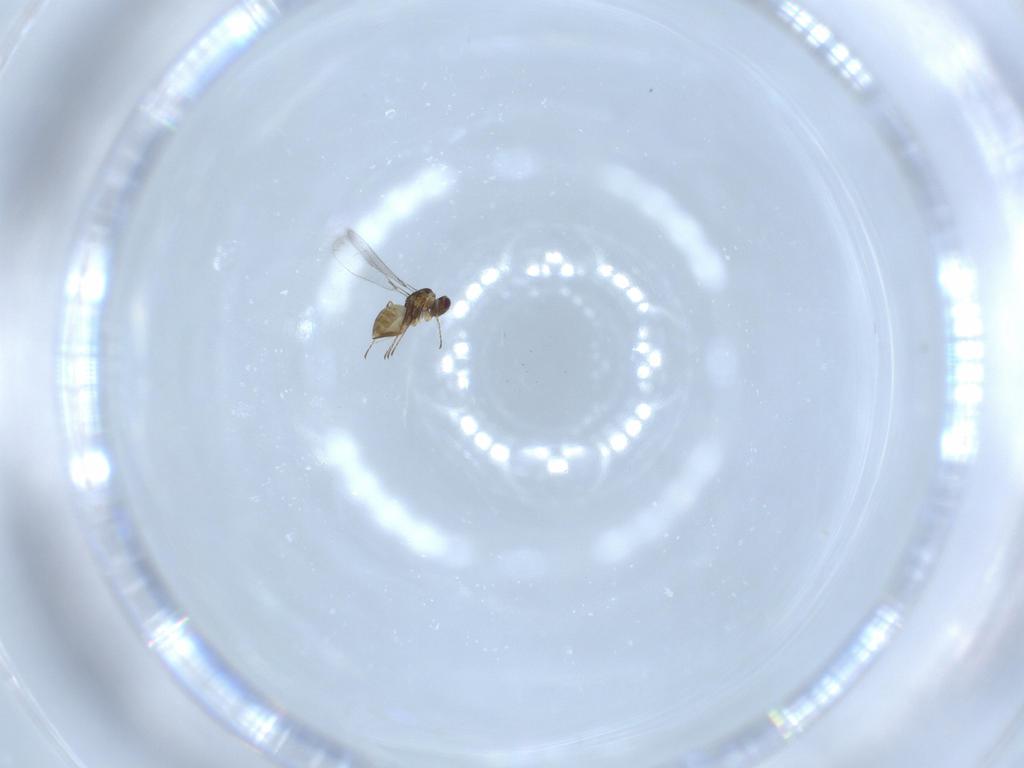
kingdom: Animalia
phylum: Arthropoda
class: Insecta
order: Hymenoptera
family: Mymaridae
